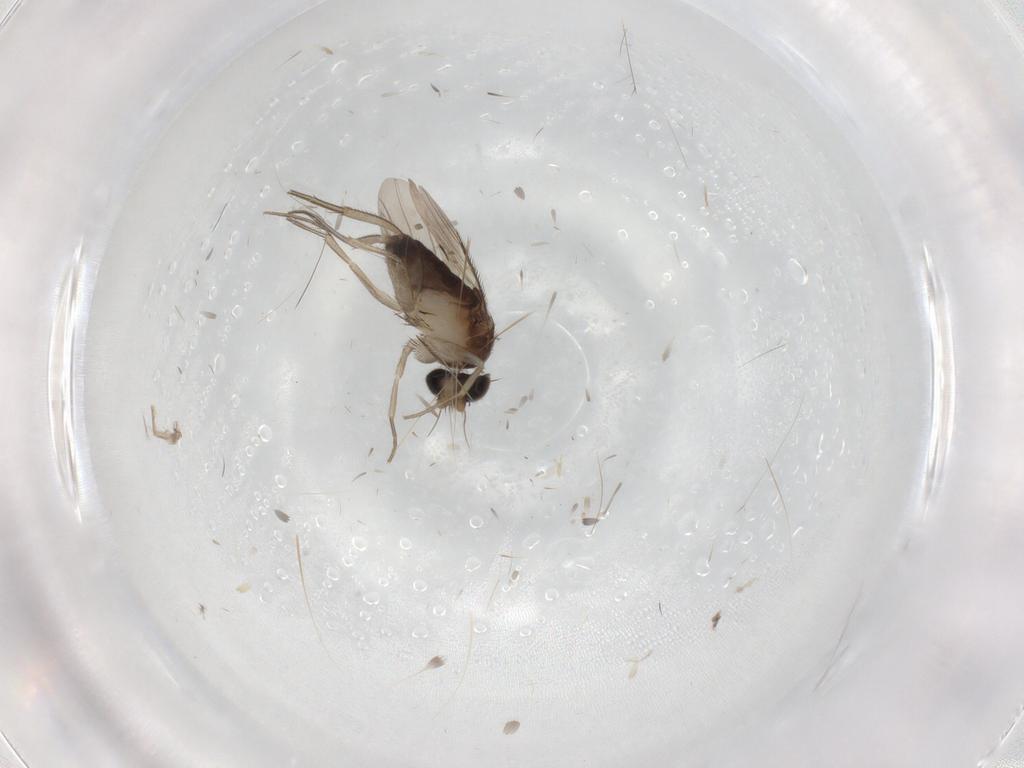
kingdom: Animalia
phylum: Arthropoda
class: Insecta
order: Diptera
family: Phoridae
